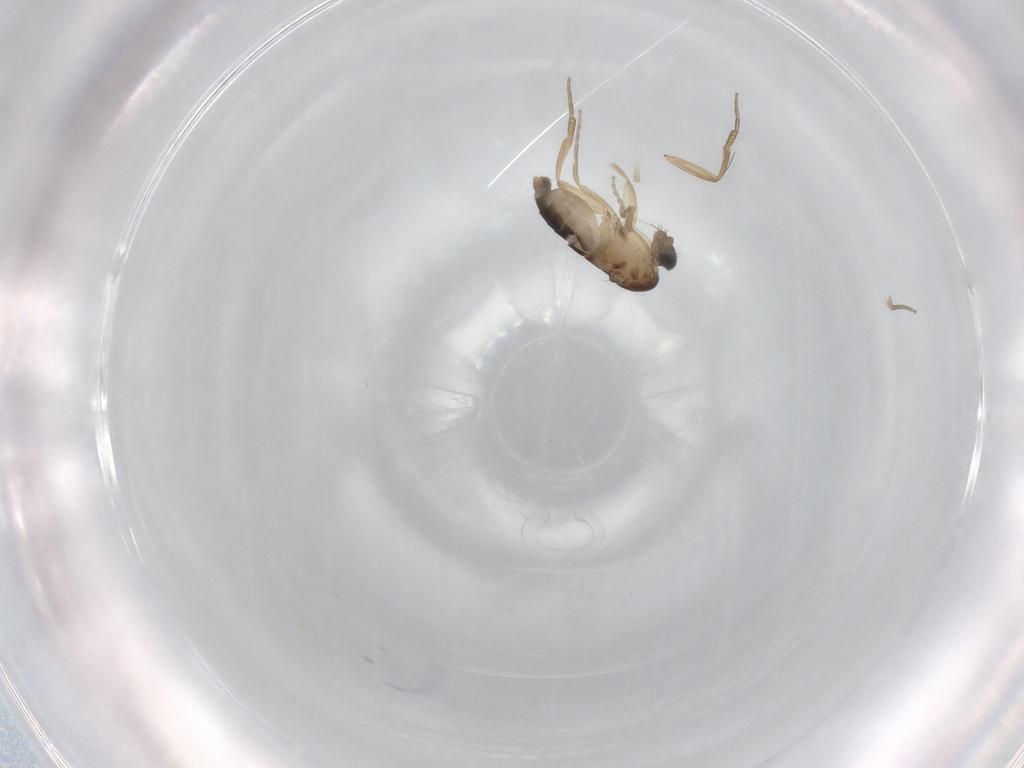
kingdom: Animalia
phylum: Arthropoda
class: Insecta
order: Diptera
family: Phoridae
